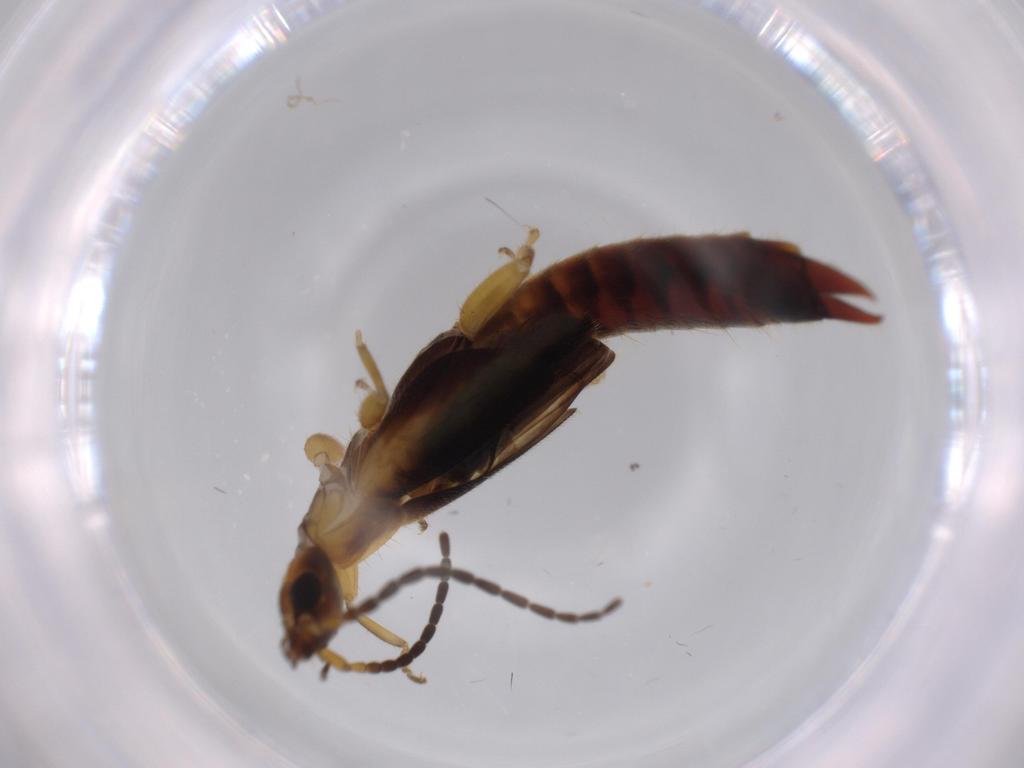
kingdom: Animalia
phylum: Arthropoda
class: Insecta
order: Dermaptera
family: Forficulidae
